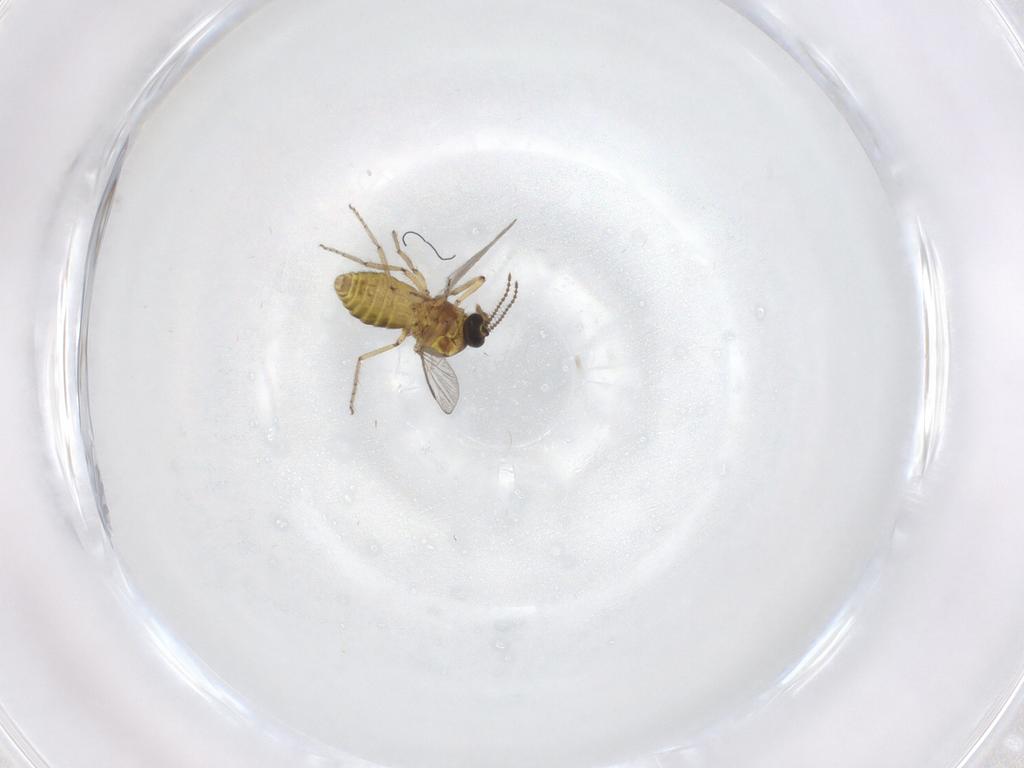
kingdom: Animalia
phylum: Arthropoda
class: Insecta
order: Diptera
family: Ceratopogonidae
